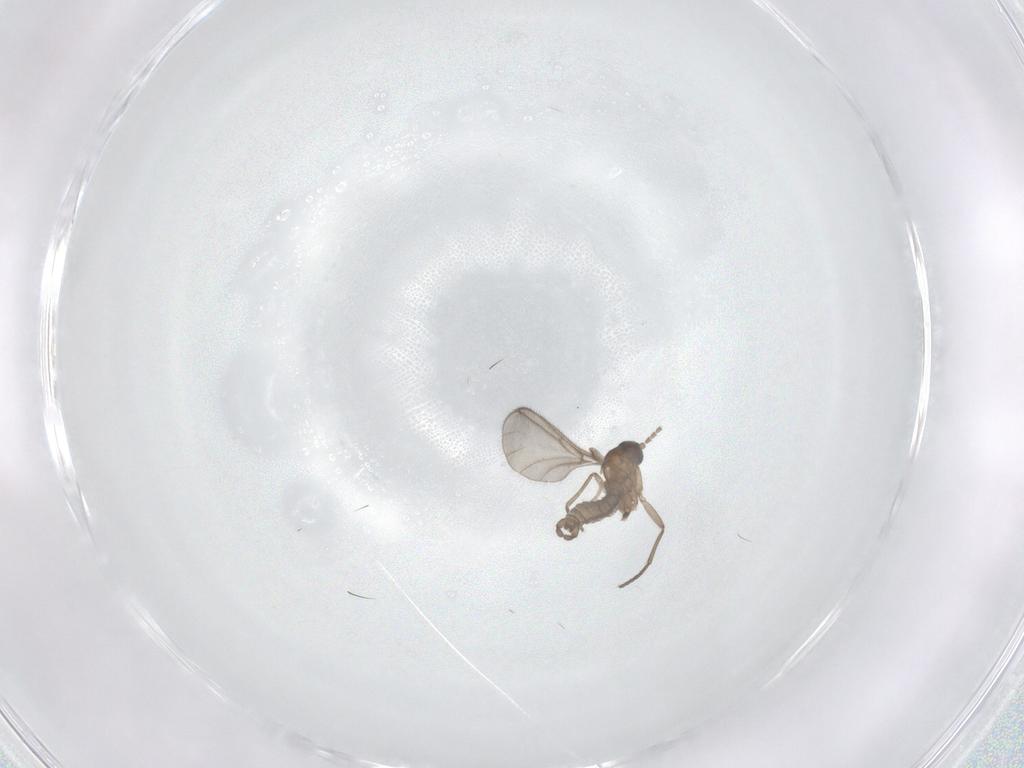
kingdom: Animalia
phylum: Arthropoda
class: Insecta
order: Diptera
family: Sciaridae
